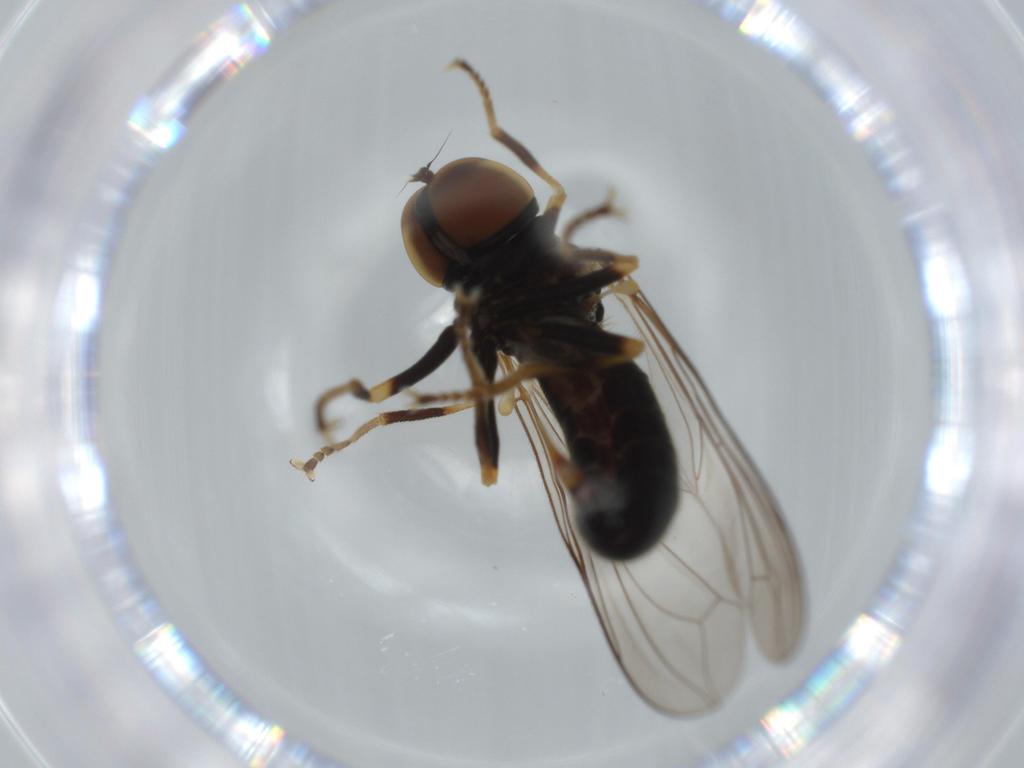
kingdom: Animalia
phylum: Arthropoda
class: Insecta
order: Diptera
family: Pipunculidae
